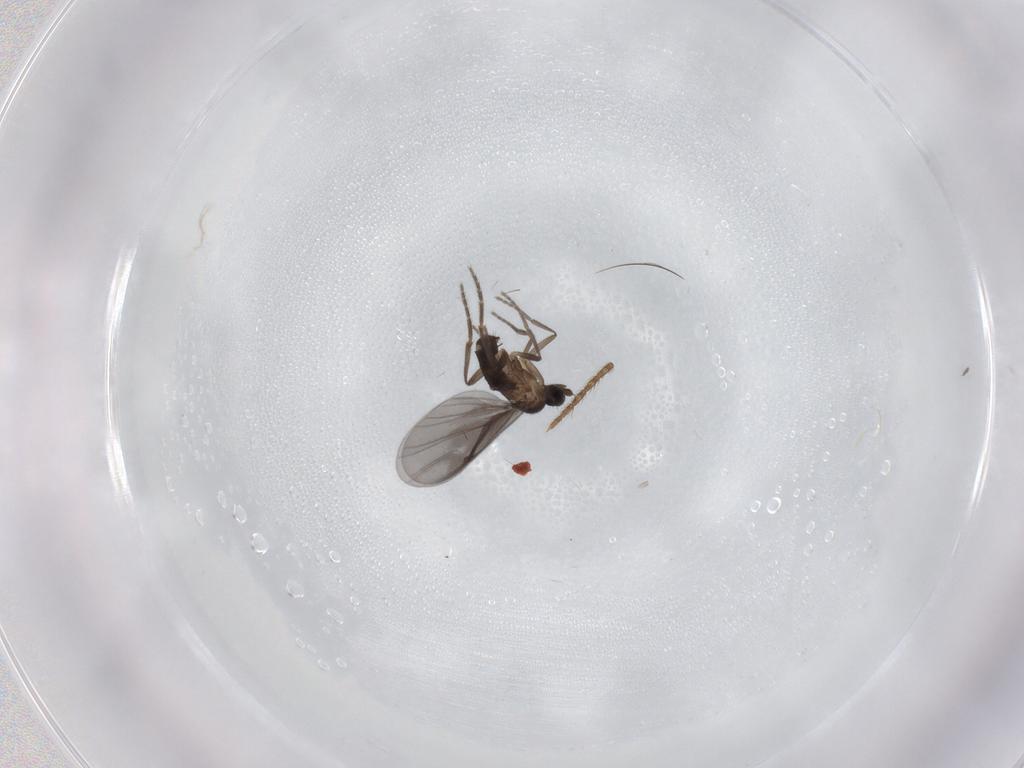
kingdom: Animalia
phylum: Arthropoda
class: Insecta
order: Diptera
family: Phoridae
